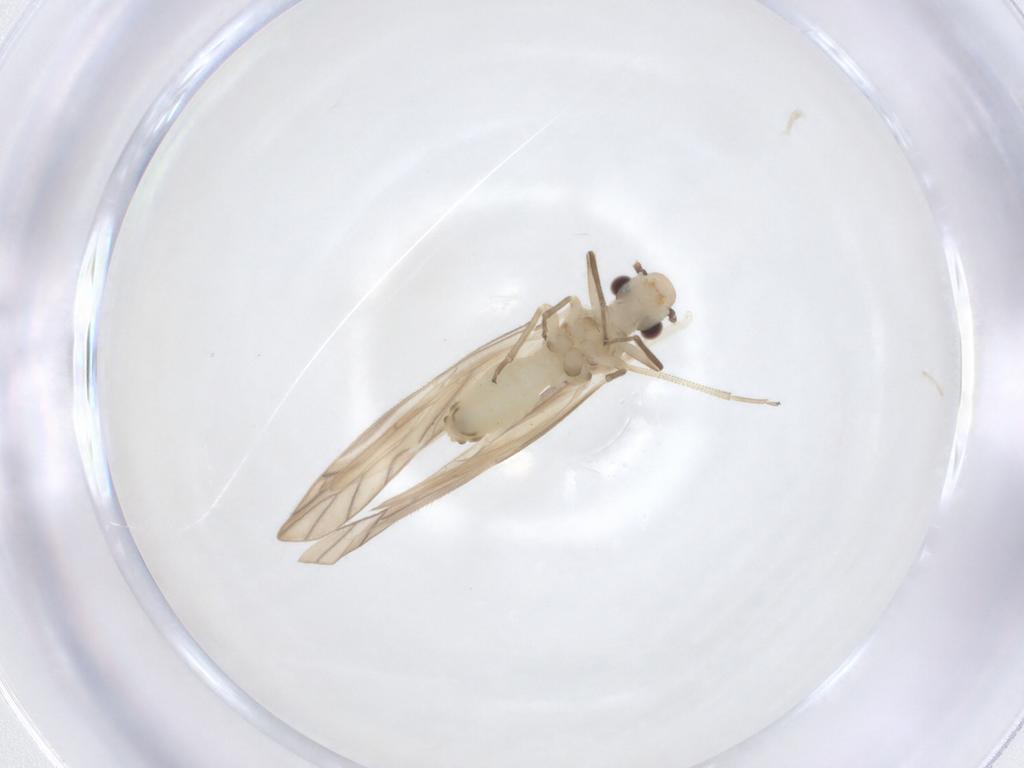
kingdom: Animalia
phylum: Arthropoda
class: Insecta
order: Psocodea
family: Caeciliusidae
